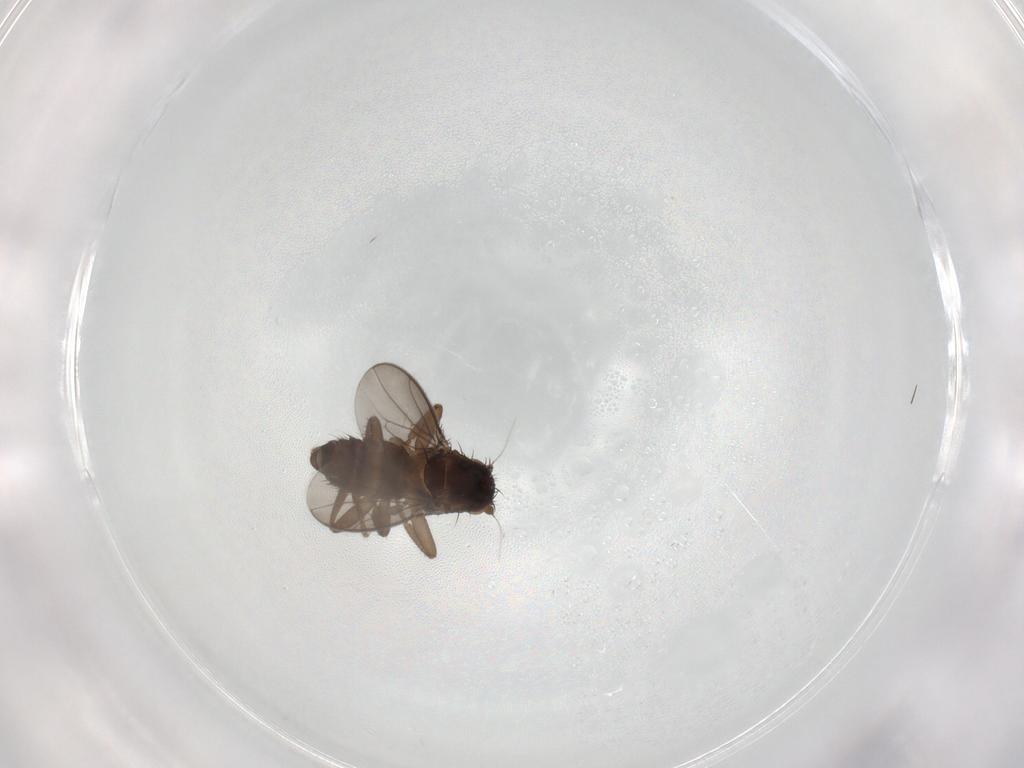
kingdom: Animalia
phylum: Arthropoda
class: Insecta
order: Diptera
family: Sphaeroceridae
